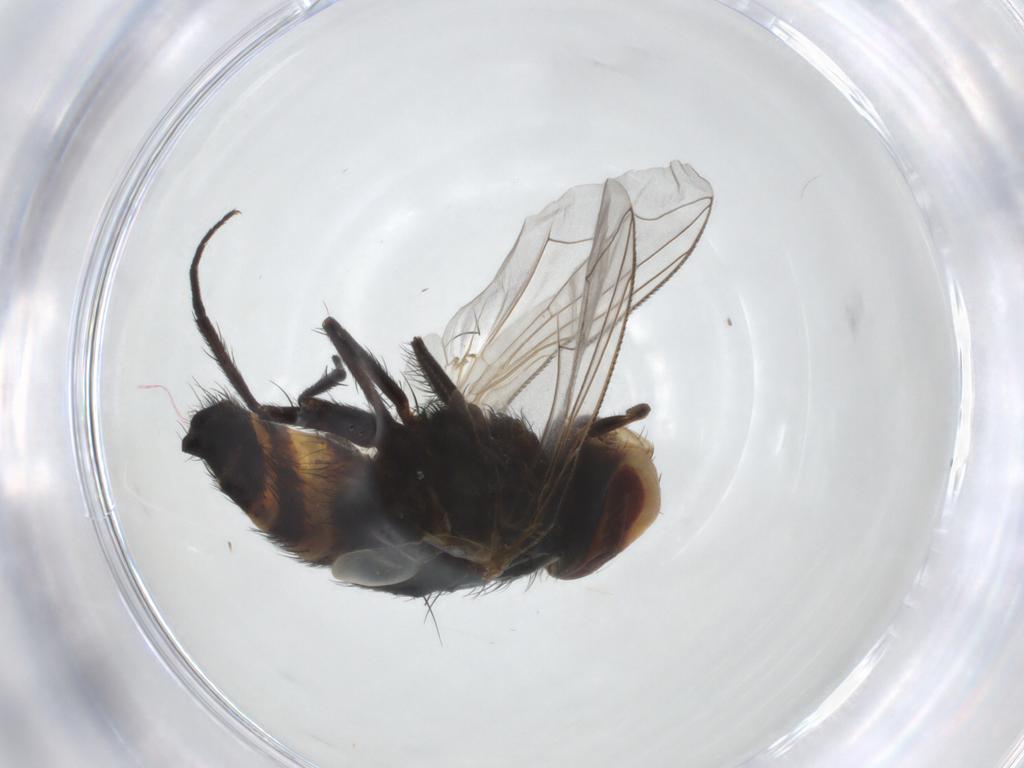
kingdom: Animalia
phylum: Arthropoda
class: Insecta
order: Diptera
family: Sarcophagidae
